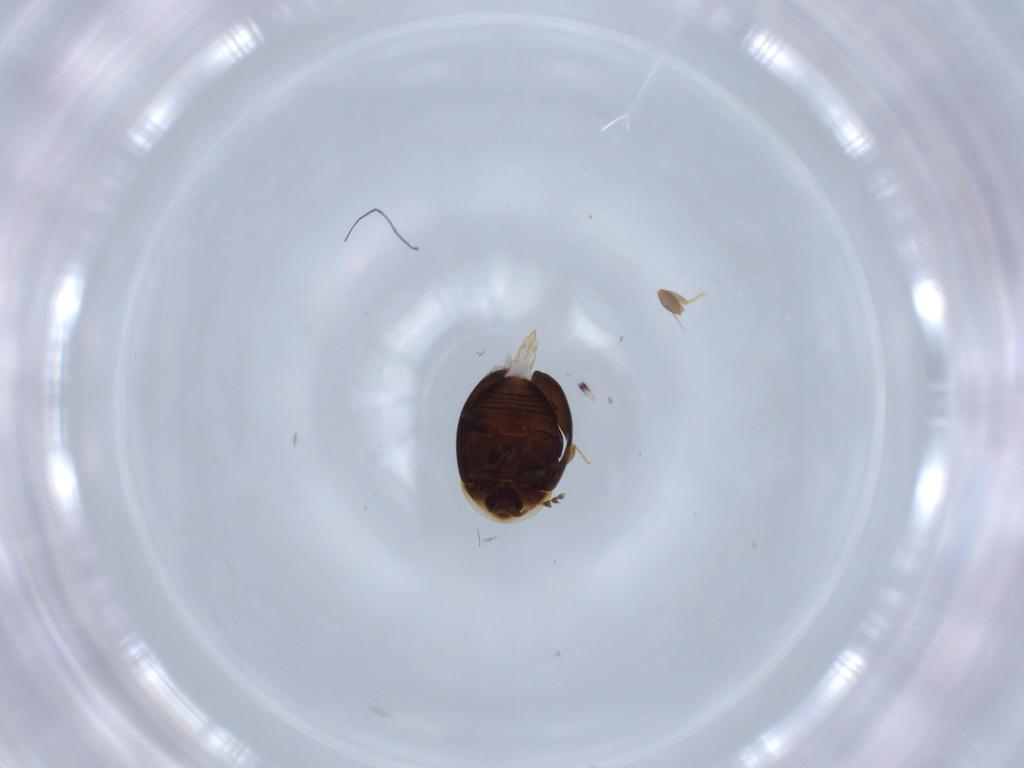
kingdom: Animalia
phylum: Arthropoda
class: Insecta
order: Coleoptera
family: Corylophidae
